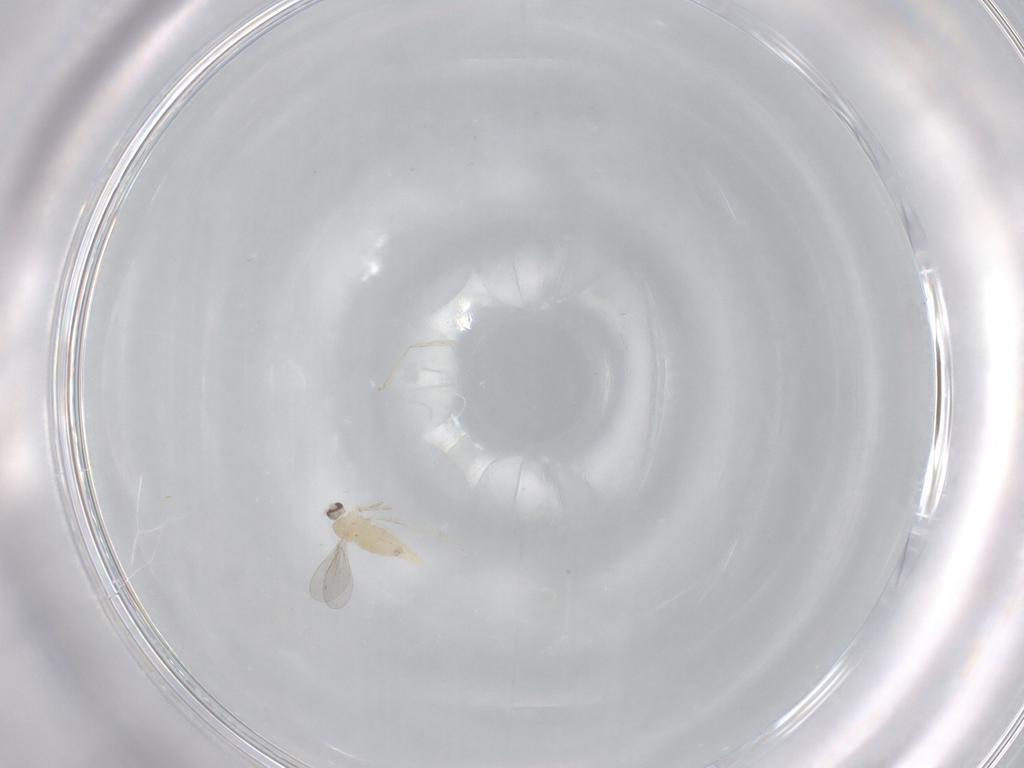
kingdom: Animalia
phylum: Arthropoda
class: Insecta
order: Diptera
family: Cecidomyiidae
